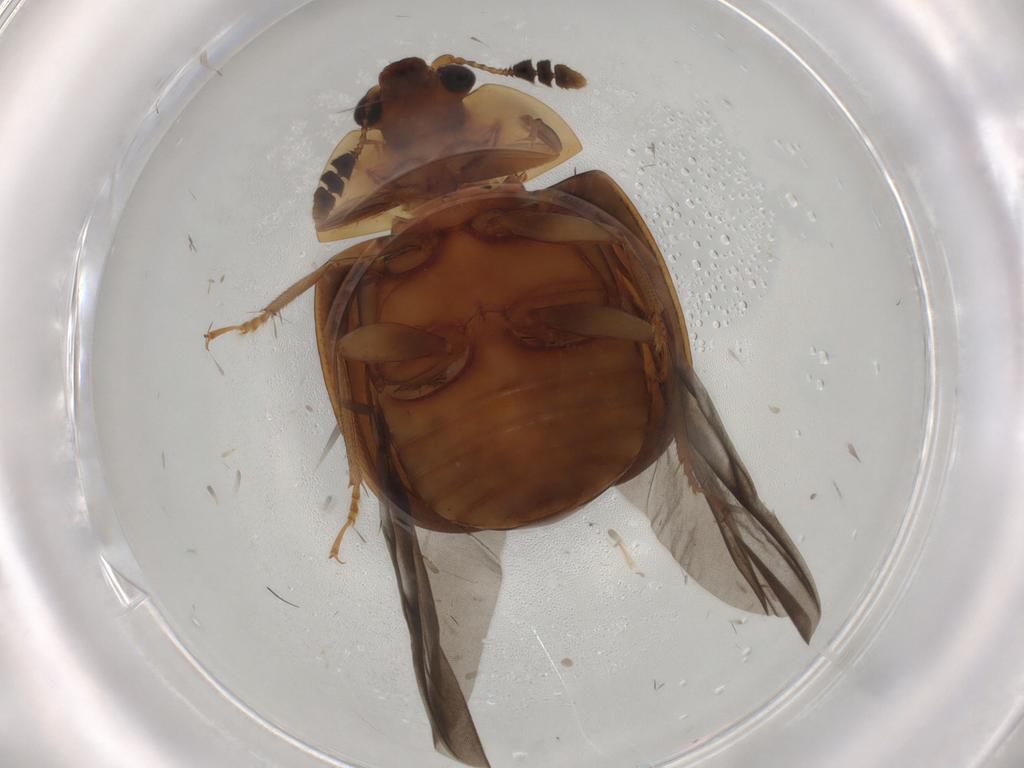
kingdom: Animalia
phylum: Arthropoda
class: Insecta
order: Coleoptera
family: Nitidulidae
